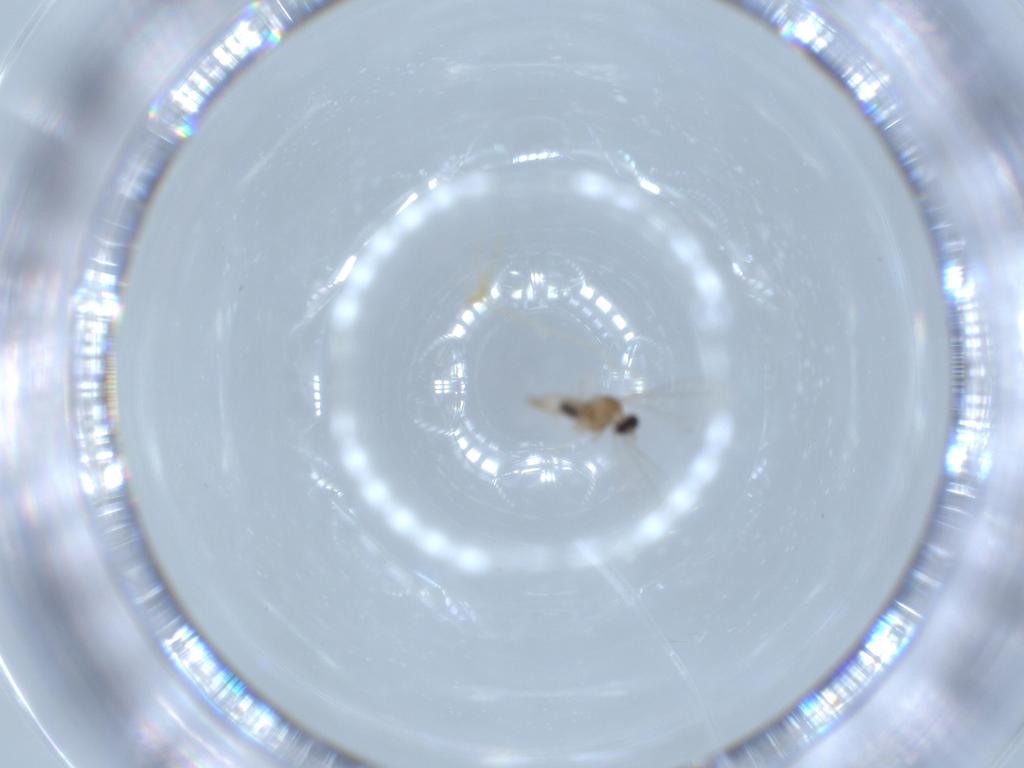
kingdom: Animalia
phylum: Arthropoda
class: Insecta
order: Diptera
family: Cecidomyiidae
